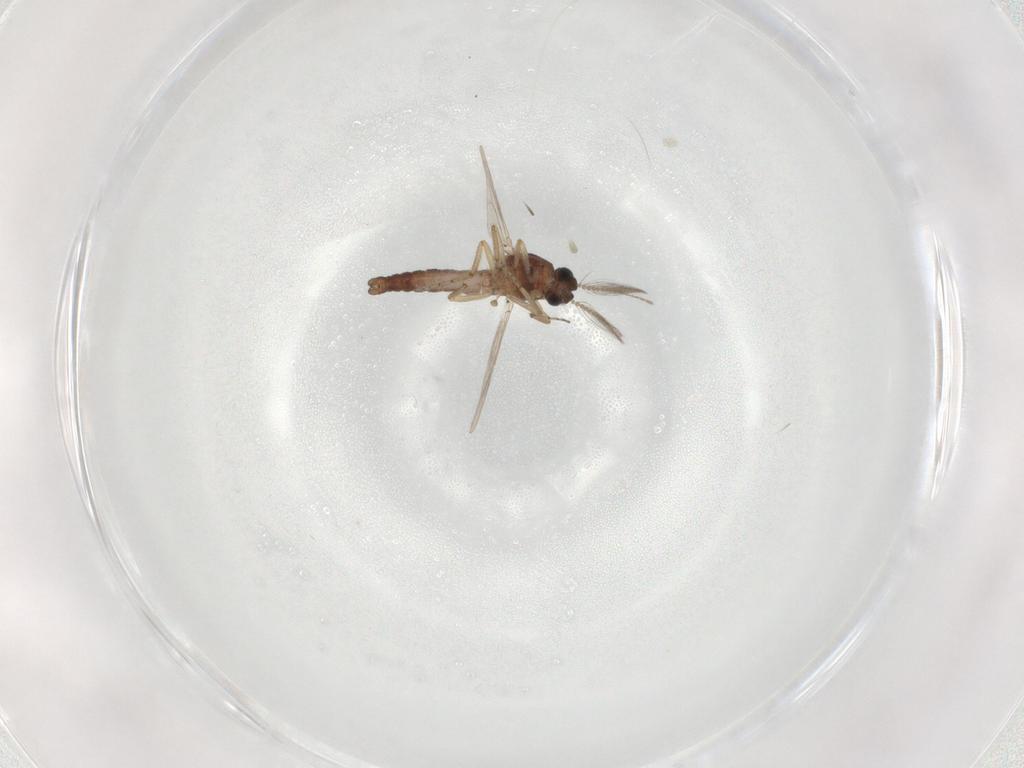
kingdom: Animalia
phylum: Arthropoda
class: Insecta
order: Diptera
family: Ceratopogonidae
